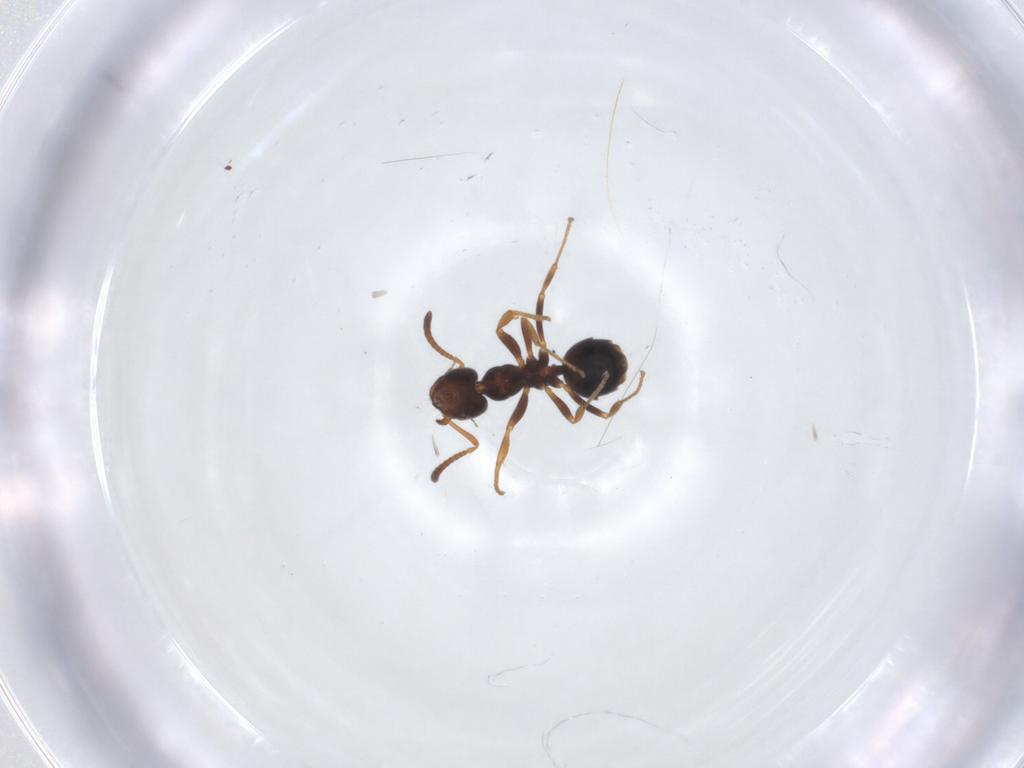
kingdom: Animalia
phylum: Arthropoda
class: Insecta
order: Hymenoptera
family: Formicidae
